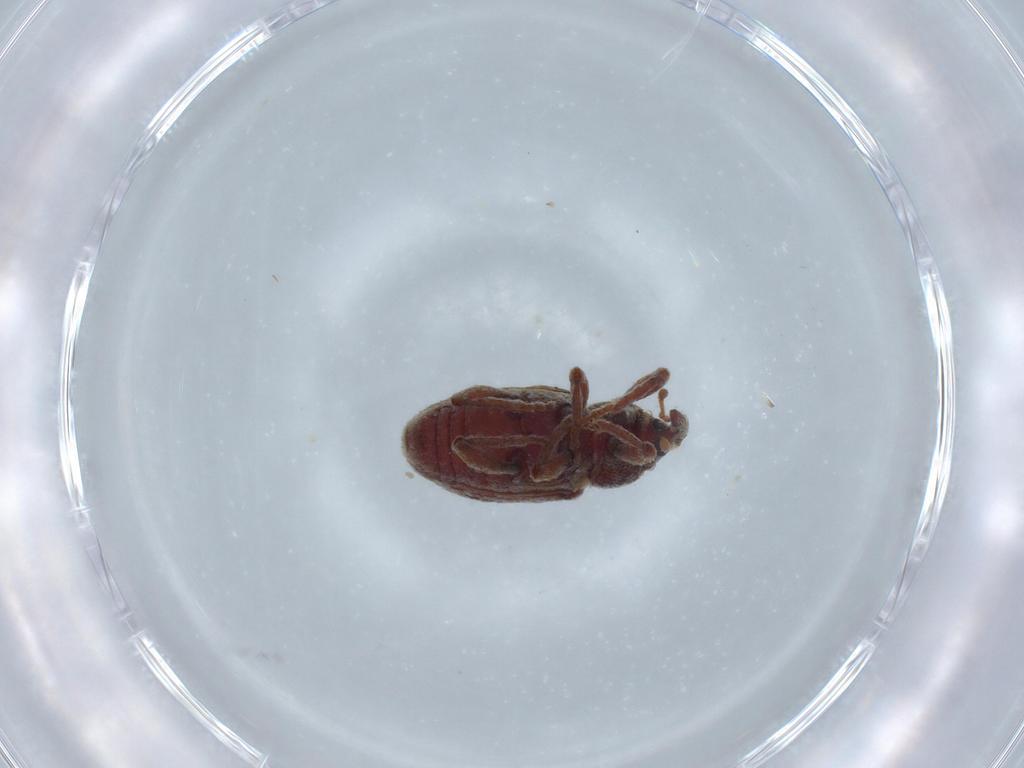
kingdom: Animalia
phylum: Arthropoda
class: Insecta
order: Coleoptera
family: Curculionidae
